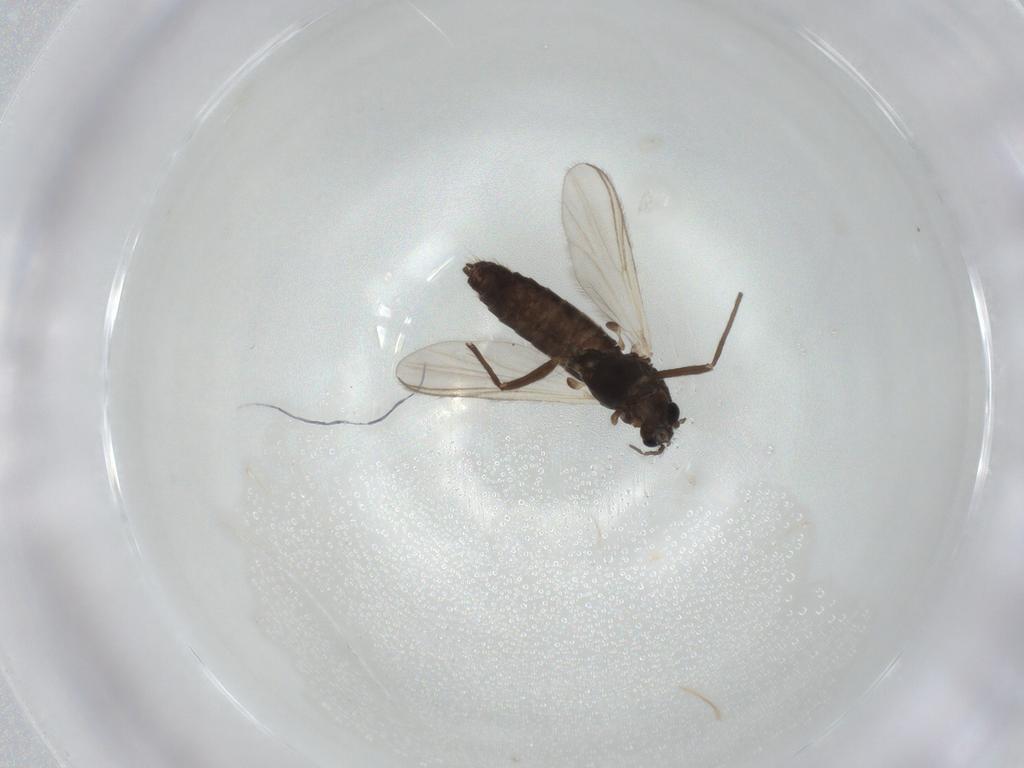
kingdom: Animalia
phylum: Arthropoda
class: Insecta
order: Diptera
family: Chironomidae
